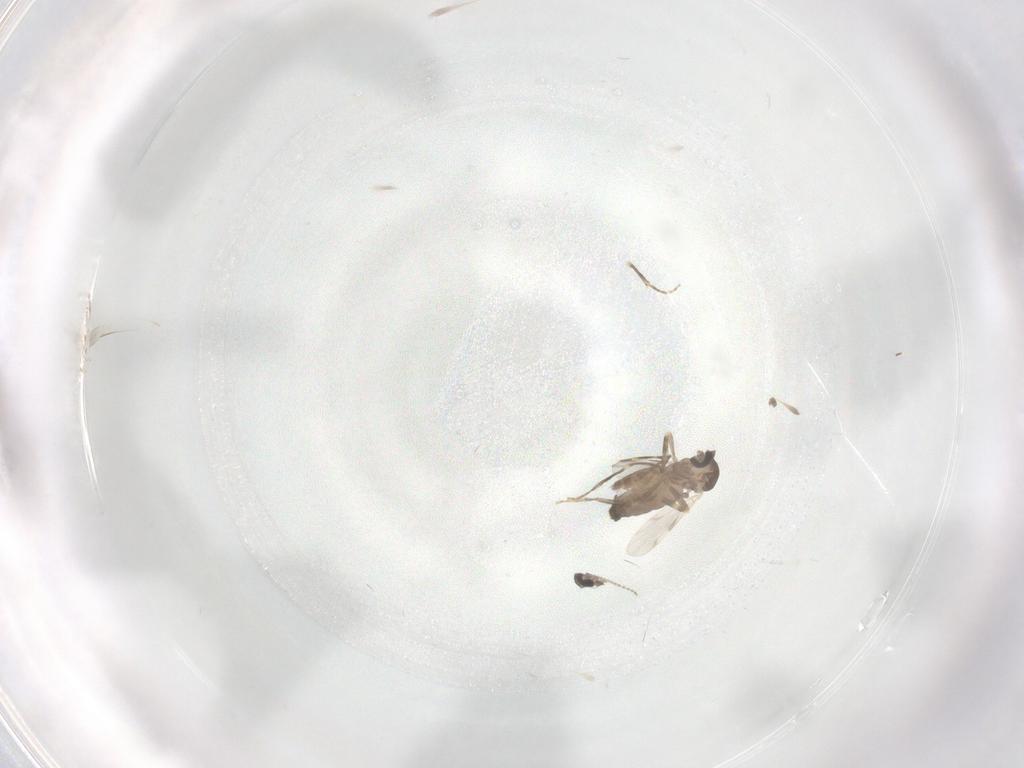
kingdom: Animalia
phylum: Arthropoda
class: Insecta
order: Diptera
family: Ceratopogonidae
